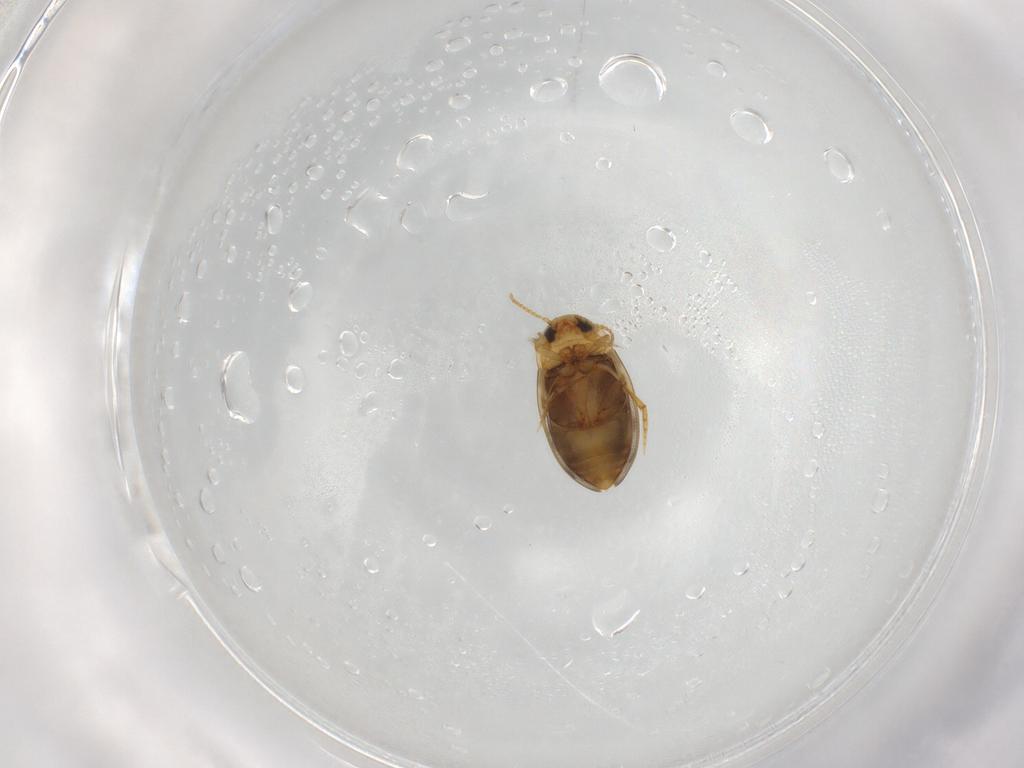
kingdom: Animalia
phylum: Arthropoda
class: Insecta
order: Coleoptera
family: Dytiscidae
